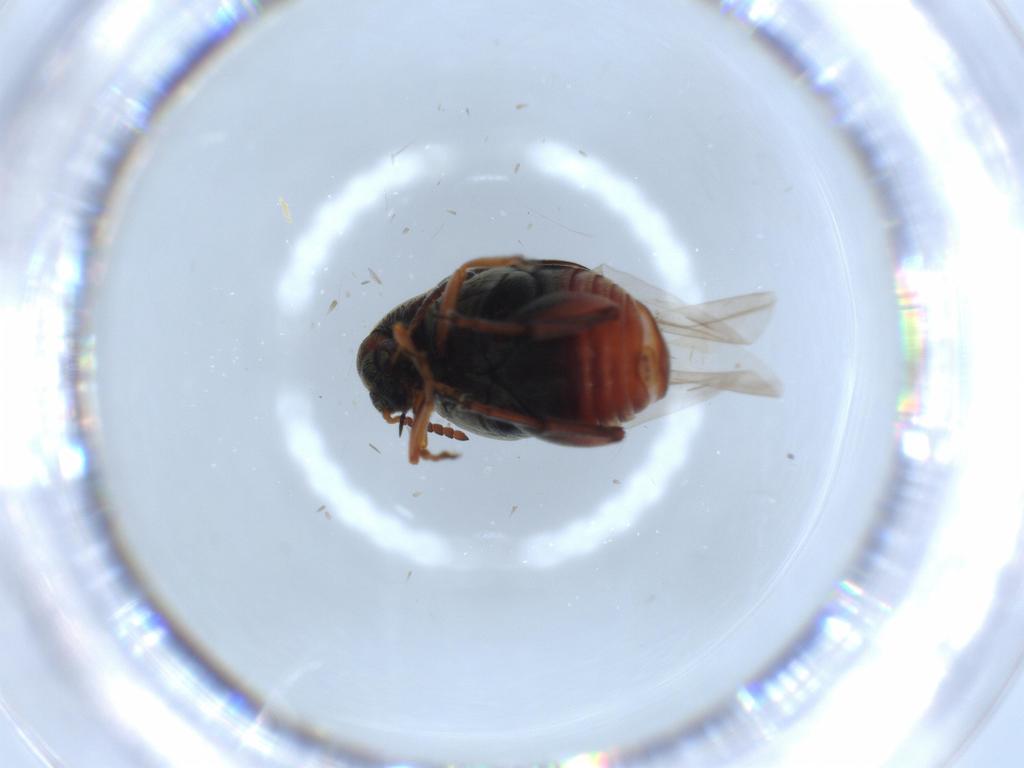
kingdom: Animalia
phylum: Arthropoda
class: Insecta
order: Coleoptera
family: Chrysomelidae
